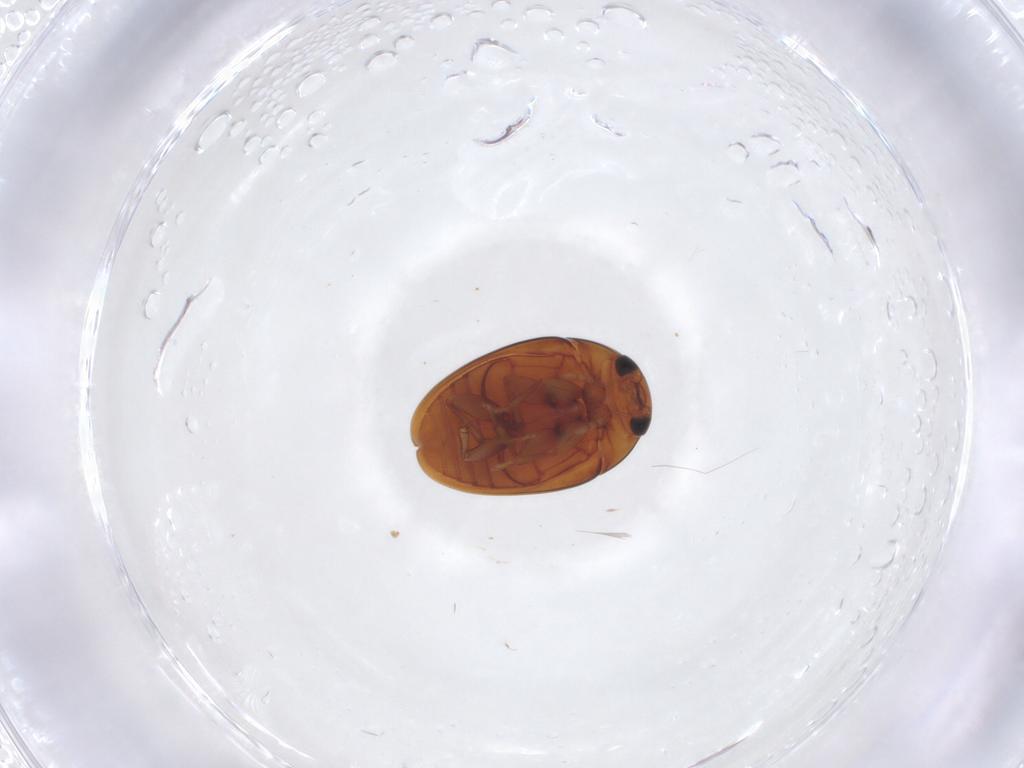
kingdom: Animalia
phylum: Arthropoda
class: Insecta
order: Coleoptera
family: Phalacridae
